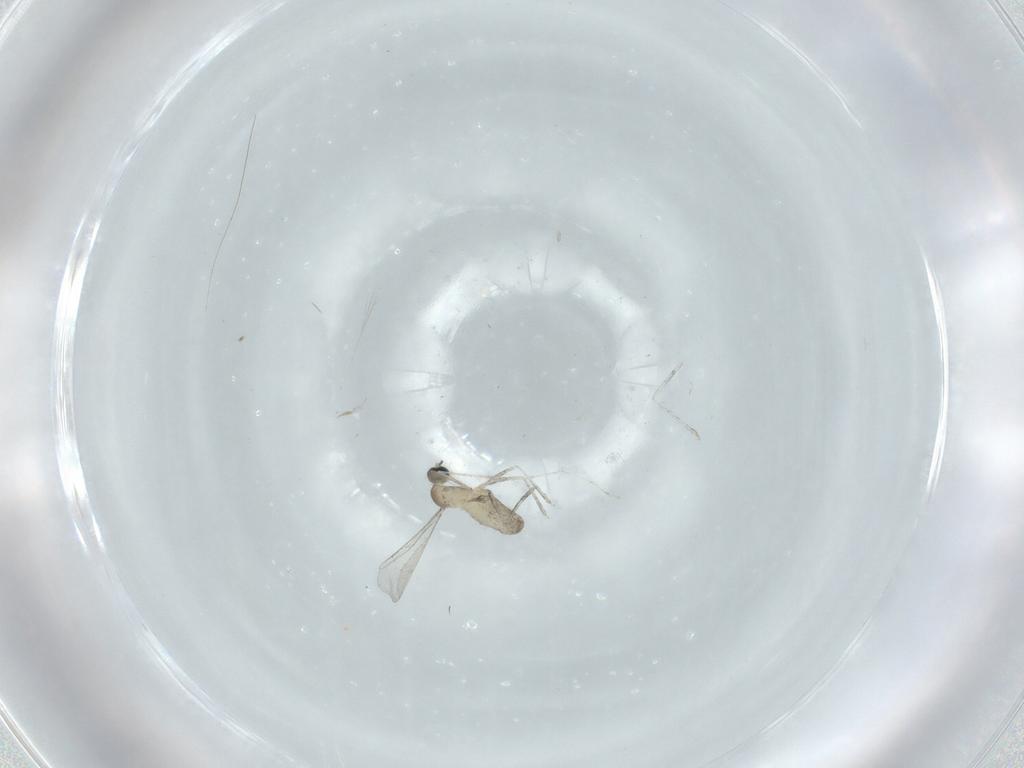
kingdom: Animalia
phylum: Arthropoda
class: Insecta
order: Diptera
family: Cecidomyiidae
